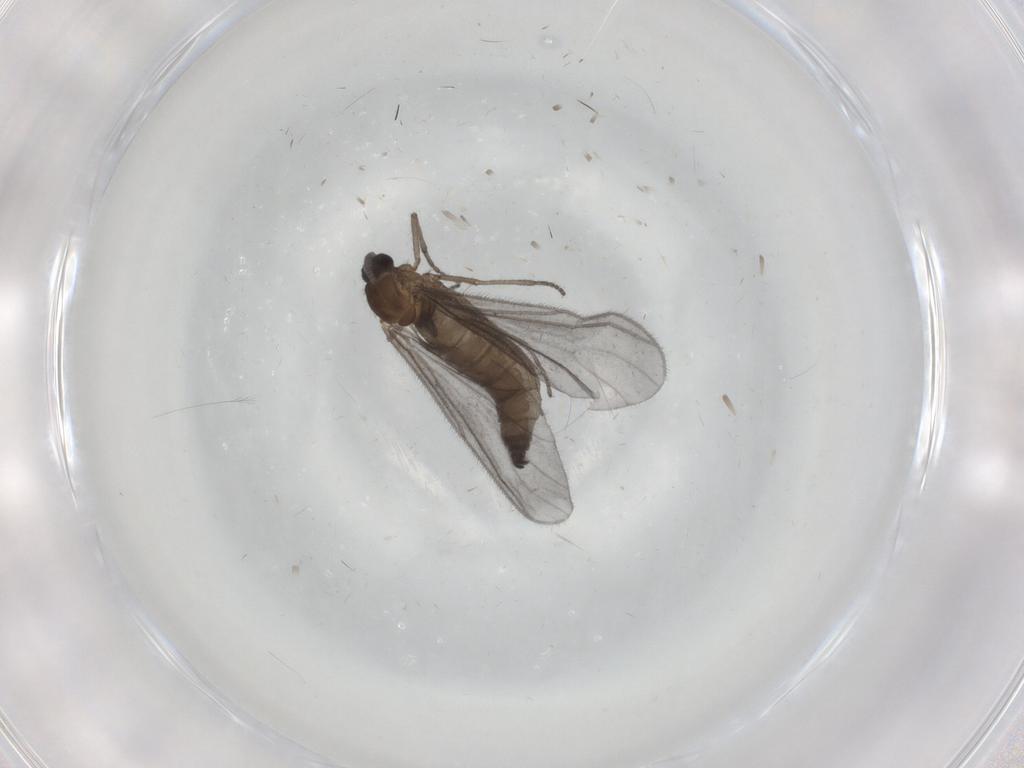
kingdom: Animalia
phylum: Arthropoda
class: Insecta
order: Diptera
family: Sciaridae
